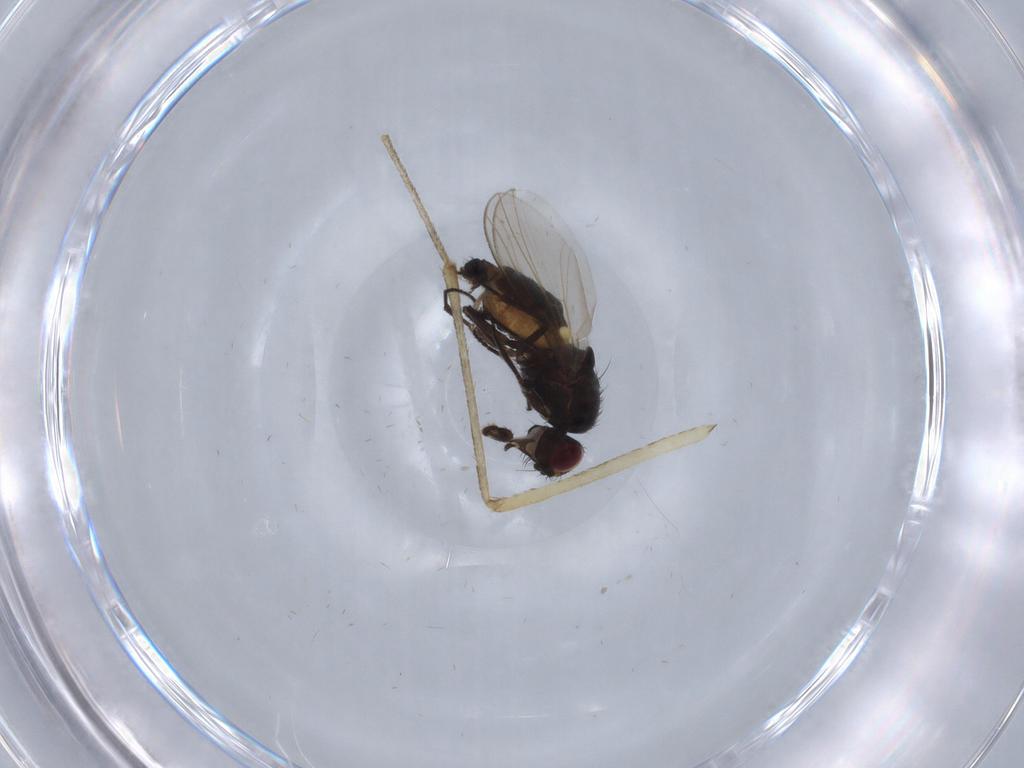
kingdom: Animalia
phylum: Arthropoda
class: Insecta
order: Diptera
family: Carnidae
